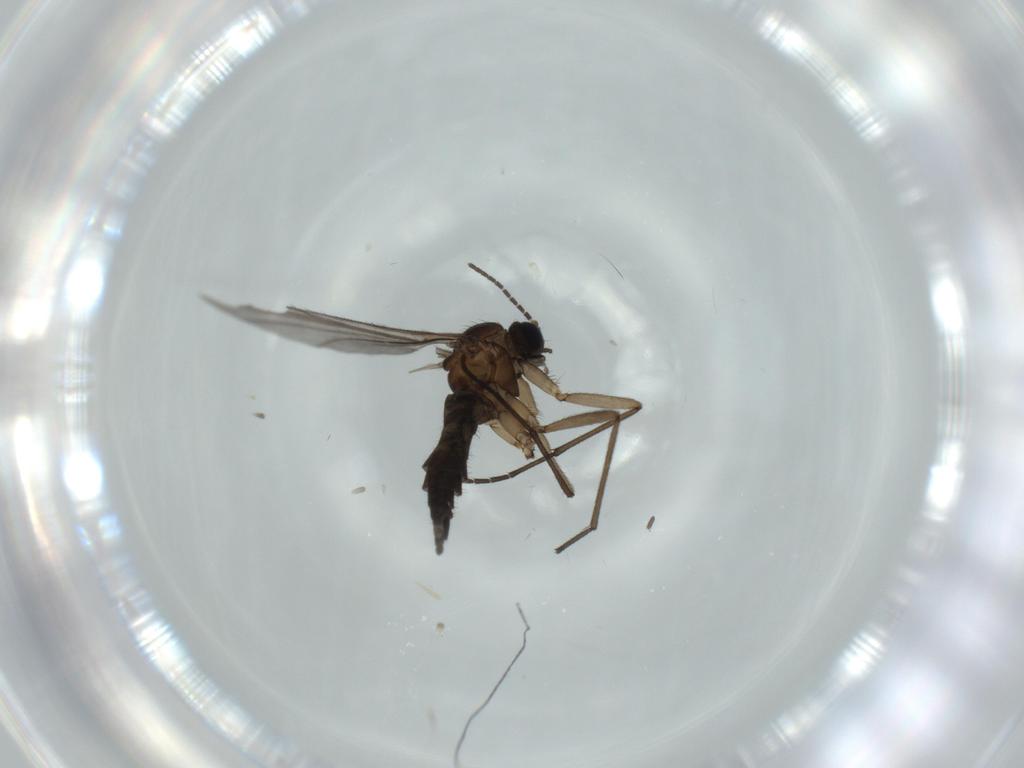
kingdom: Animalia
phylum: Arthropoda
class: Insecta
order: Diptera
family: Sciaridae
